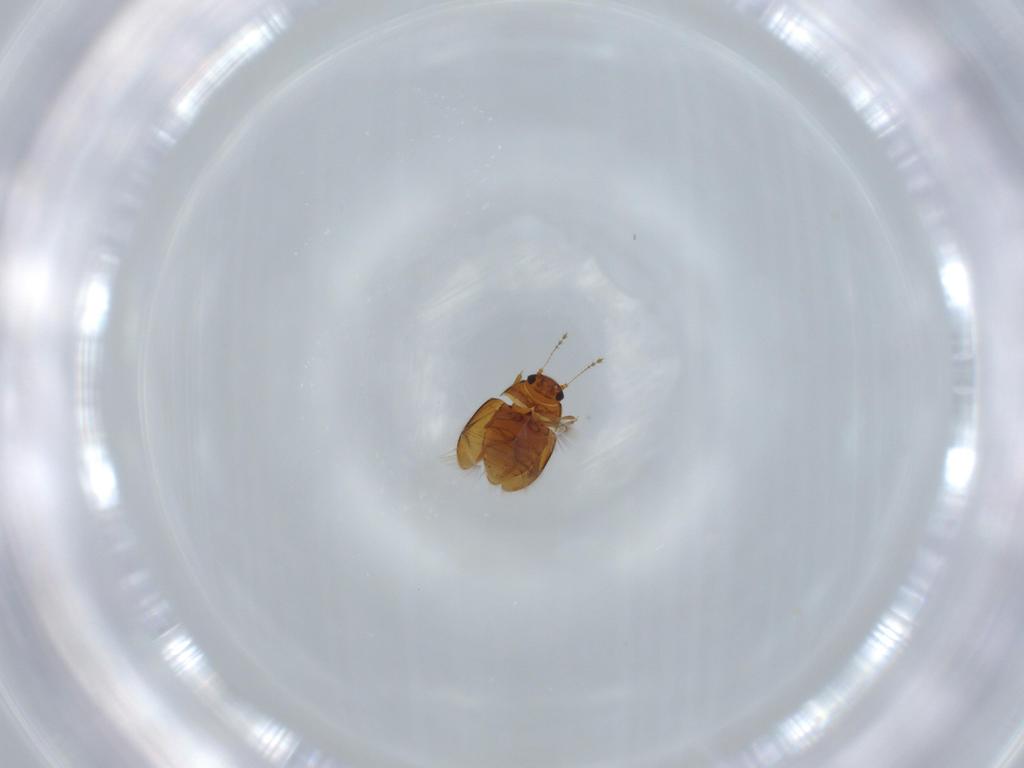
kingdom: Animalia
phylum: Arthropoda
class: Insecta
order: Coleoptera
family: Ptiliidae
